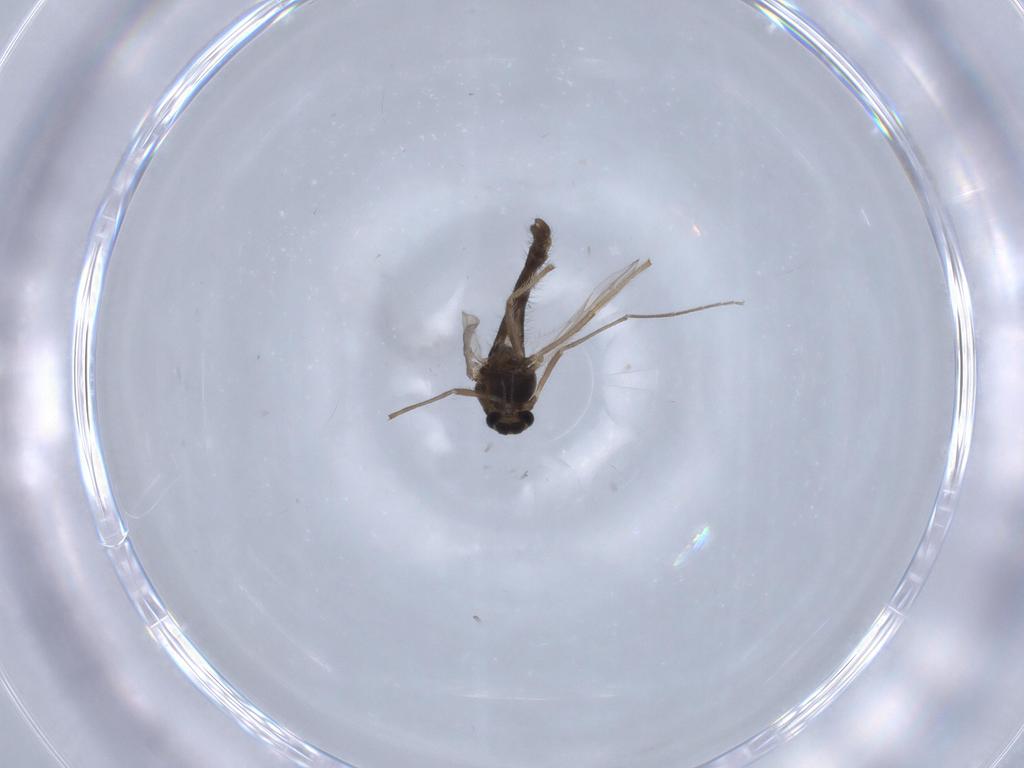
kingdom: Animalia
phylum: Arthropoda
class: Insecta
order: Diptera
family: Chironomidae
